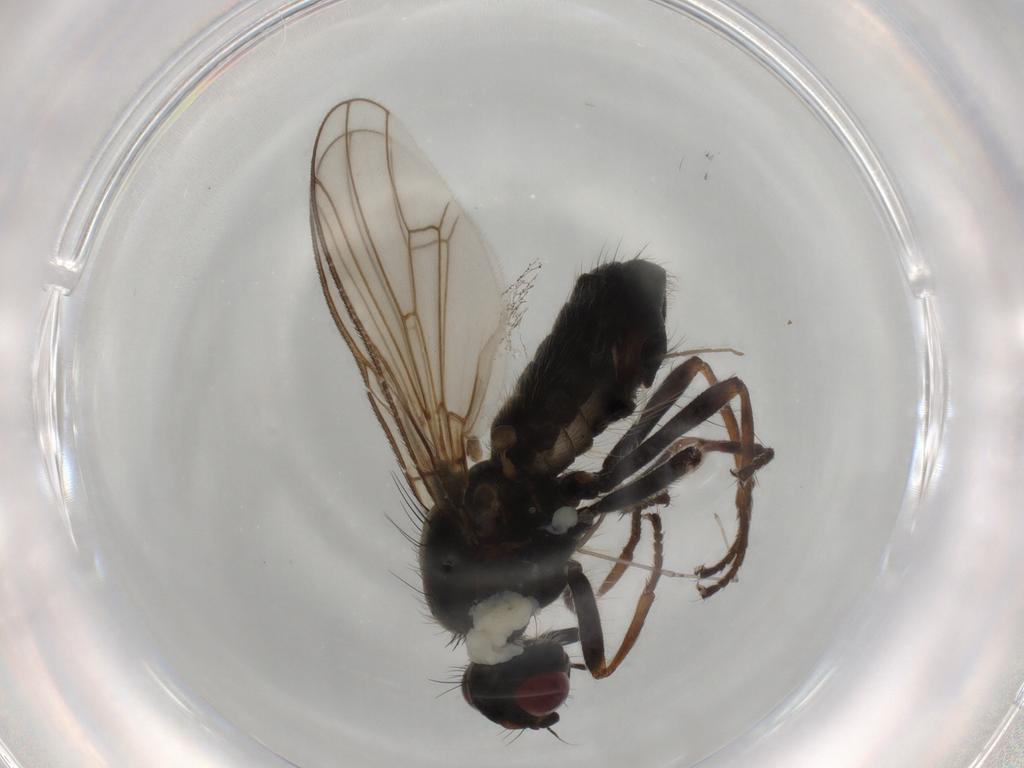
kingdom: Animalia
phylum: Arthropoda
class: Insecta
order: Diptera
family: Scathophagidae
